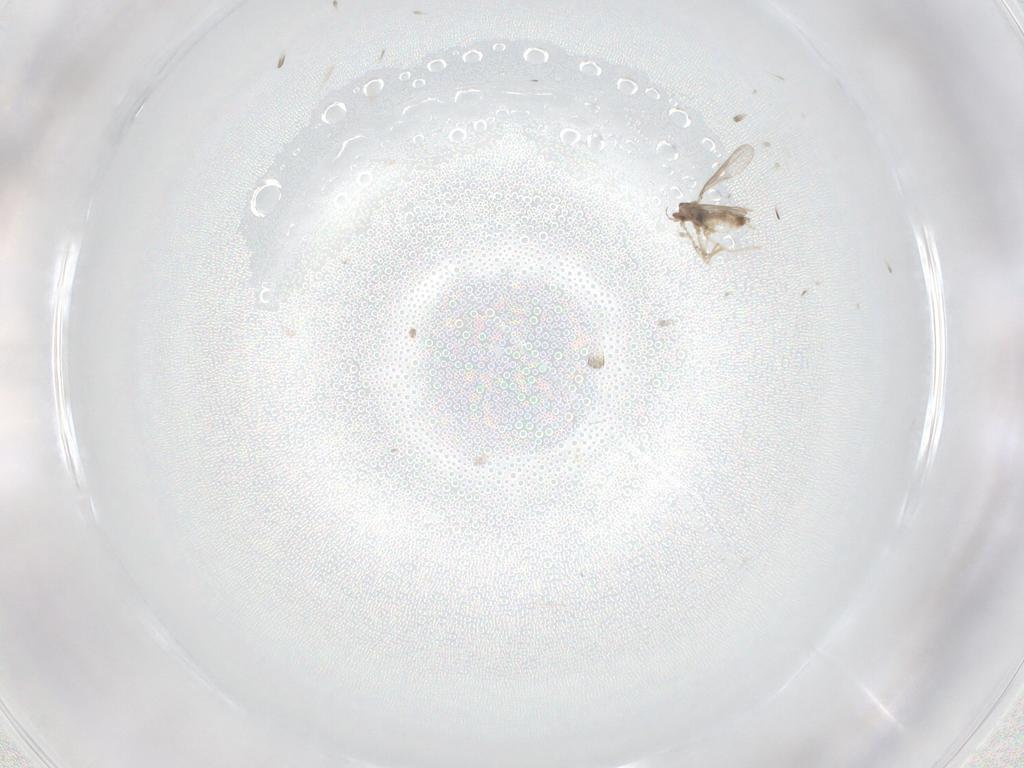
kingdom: Animalia
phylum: Arthropoda
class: Insecta
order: Diptera
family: Cecidomyiidae
